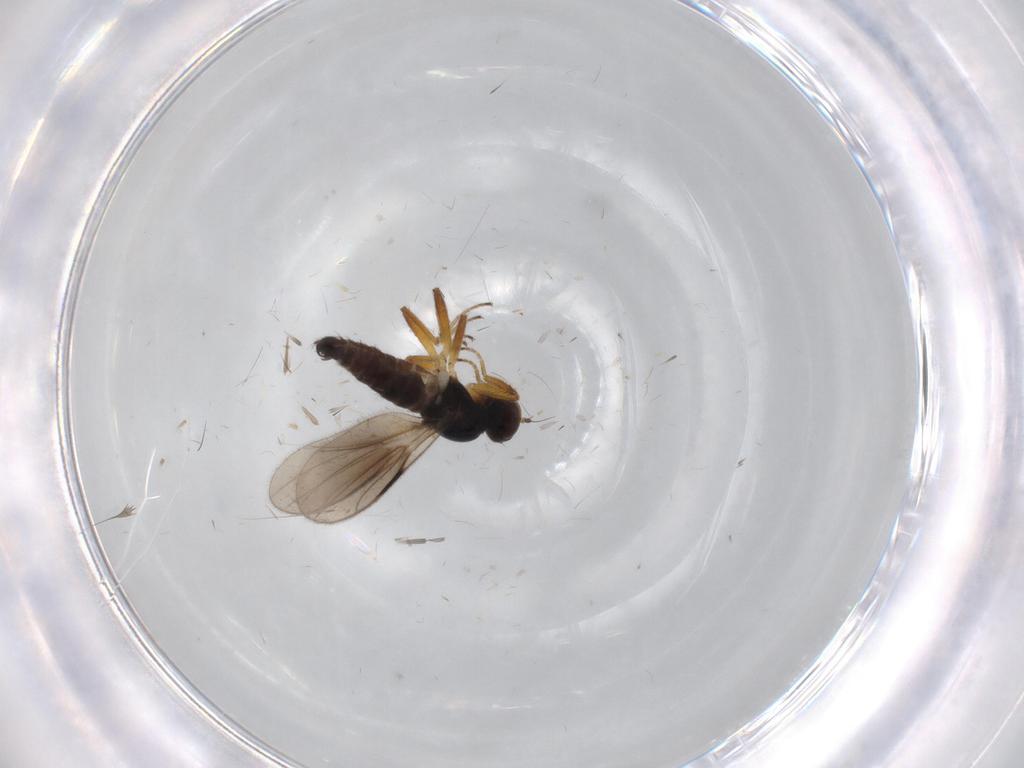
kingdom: Animalia
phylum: Arthropoda
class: Insecta
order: Diptera
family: Hybotidae
